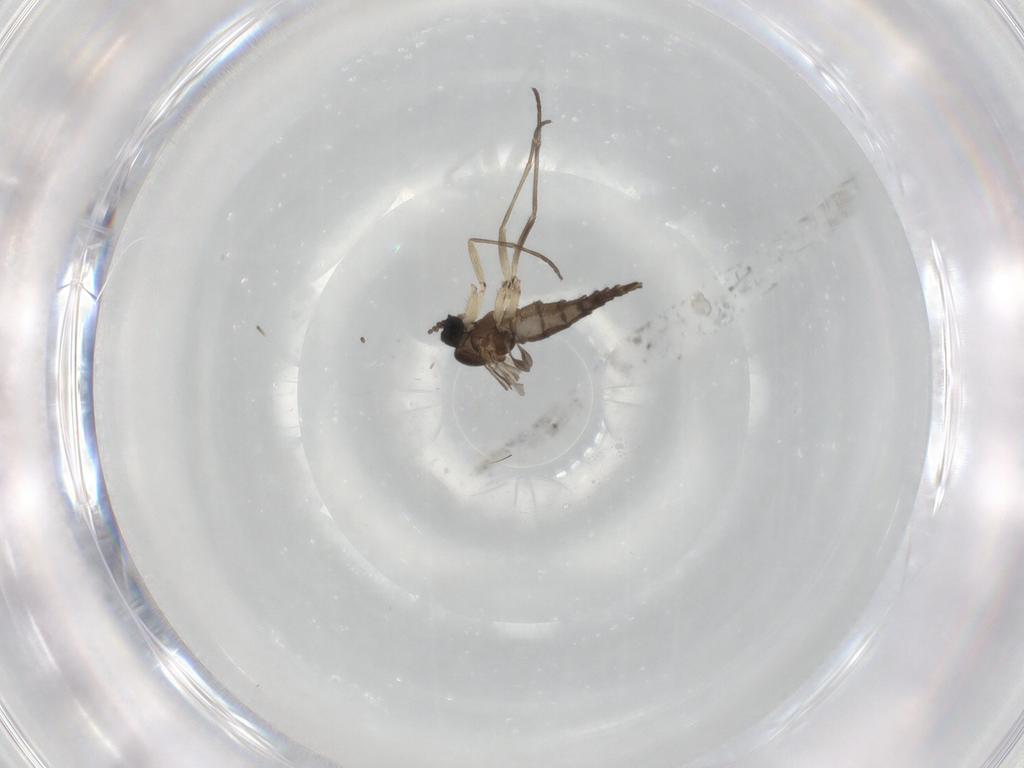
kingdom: Animalia
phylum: Arthropoda
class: Insecta
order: Diptera
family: Sciaridae
